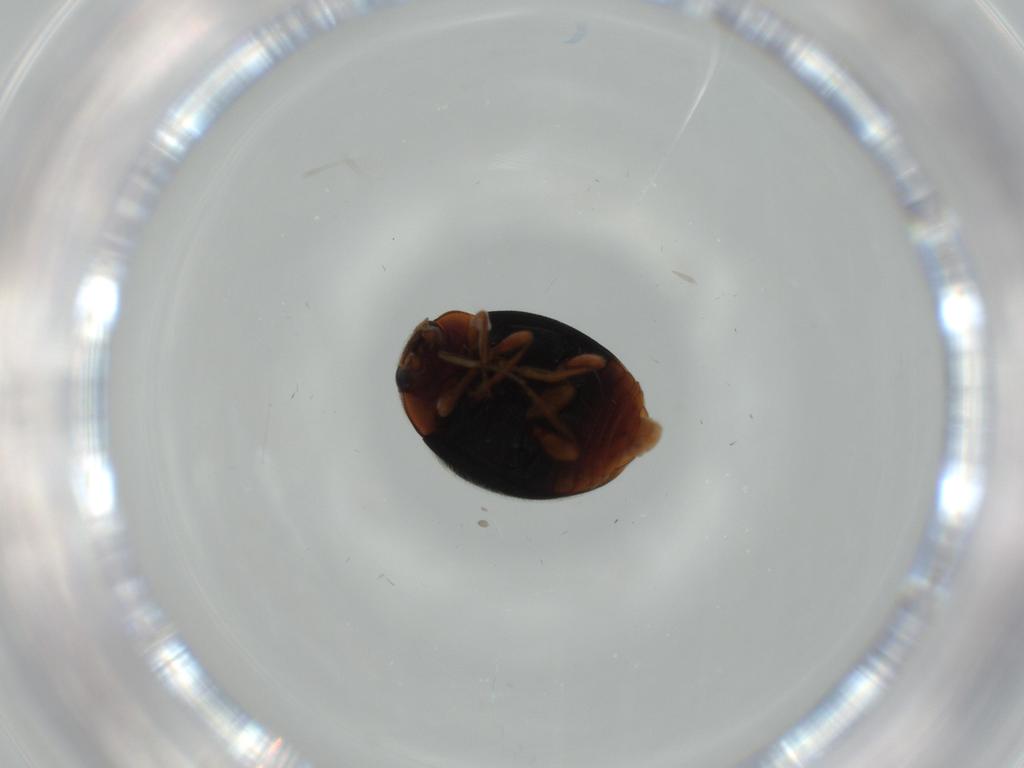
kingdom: Animalia
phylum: Arthropoda
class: Insecta
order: Coleoptera
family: Coccinellidae
